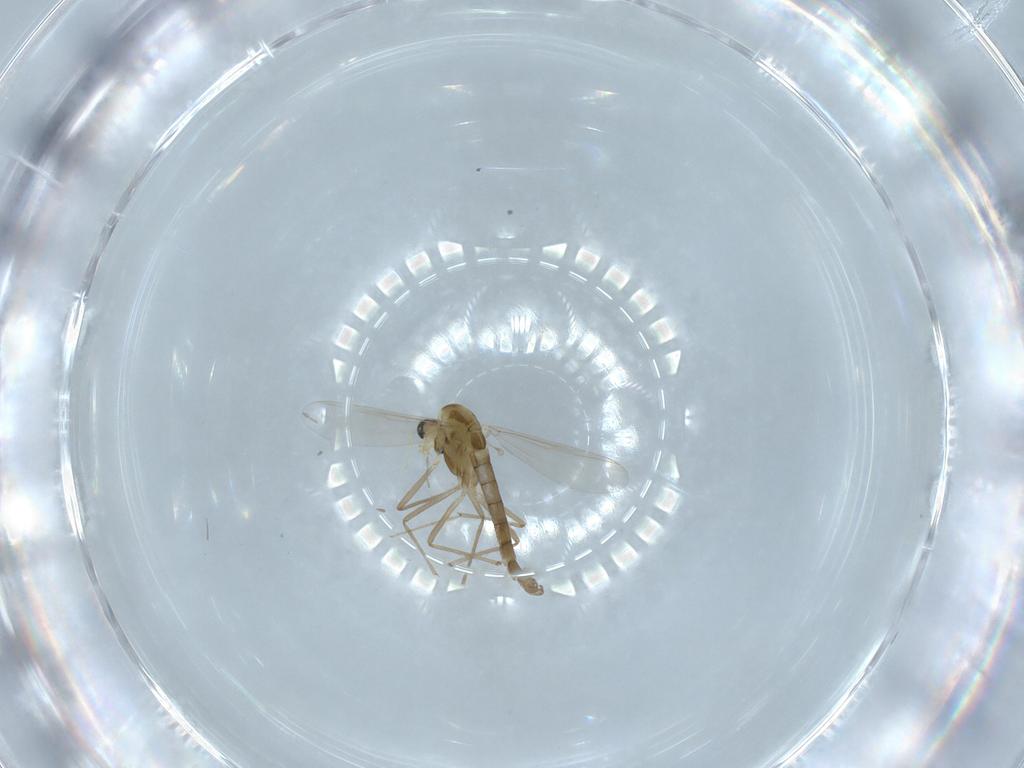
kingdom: Animalia
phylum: Arthropoda
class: Insecta
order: Diptera
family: Chironomidae
